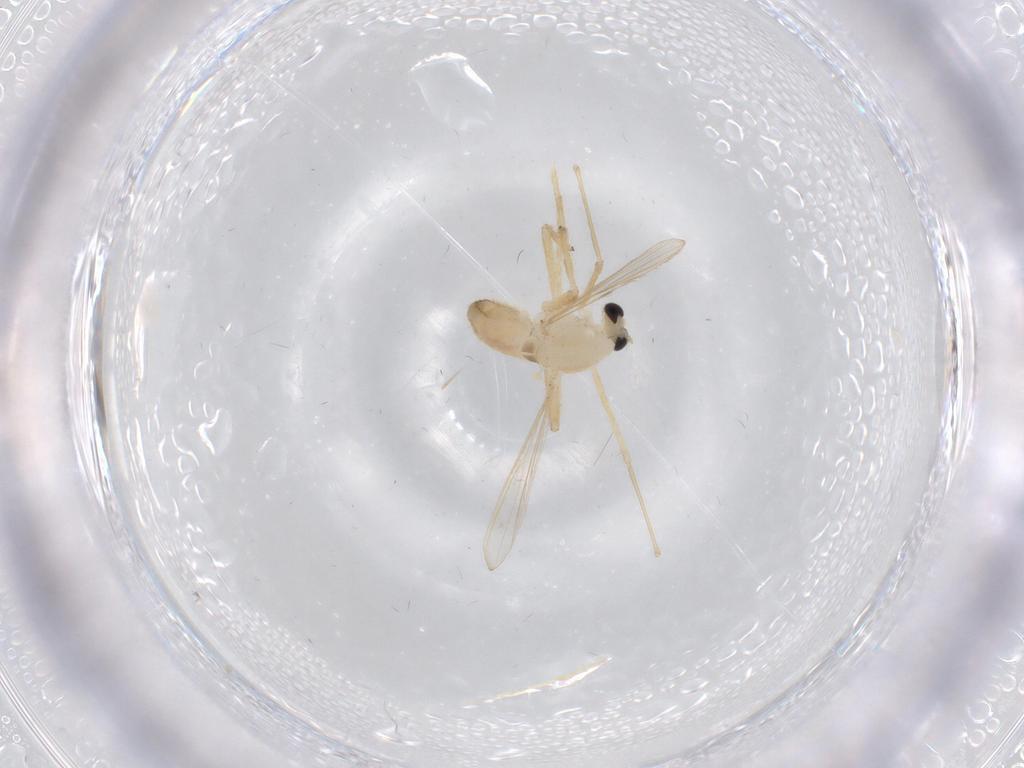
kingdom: Animalia
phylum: Arthropoda
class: Insecta
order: Diptera
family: Chironomidae
